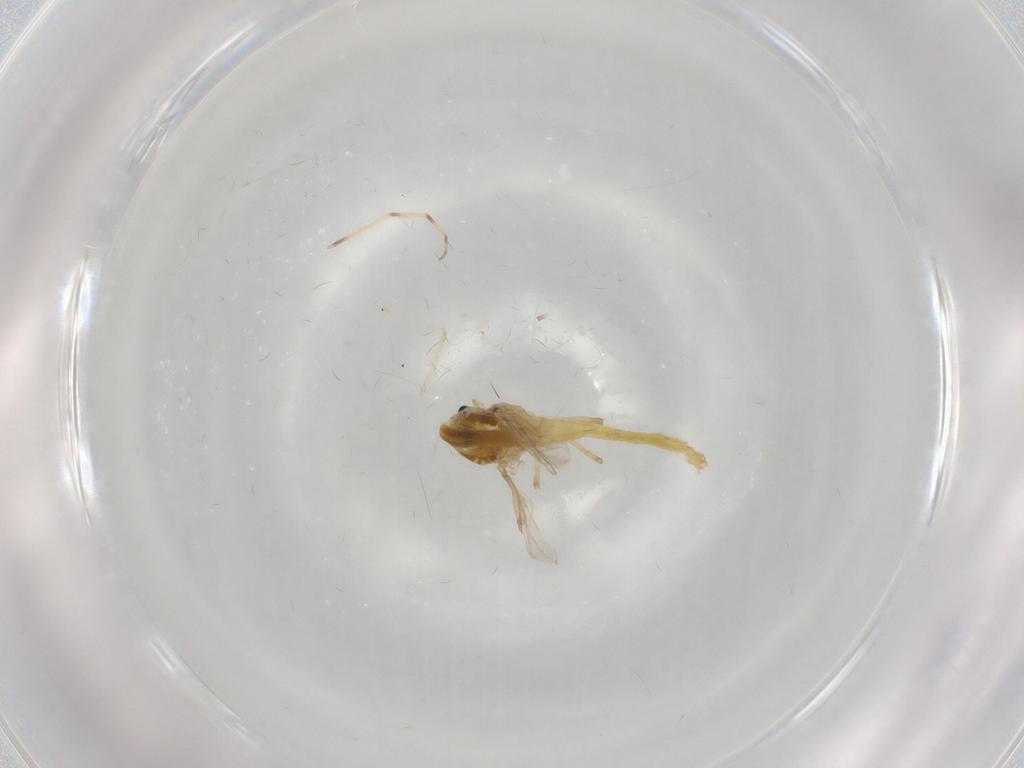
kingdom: Animalia
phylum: Arthropoda
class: Insecta
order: Diptera
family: Chironomidae
